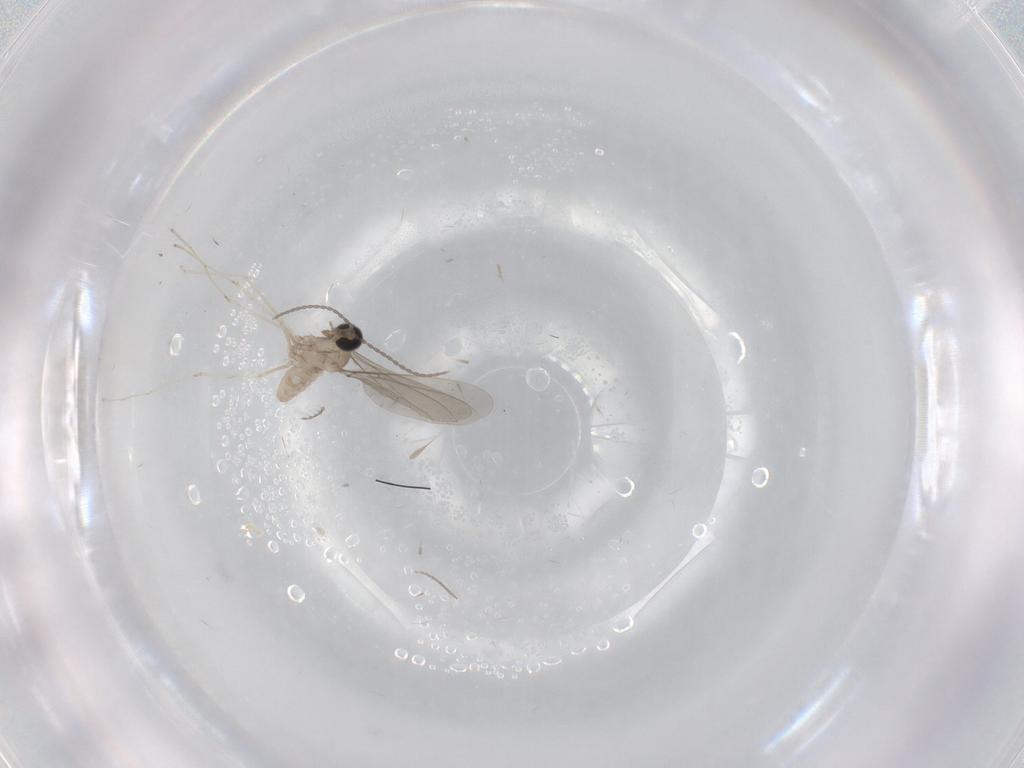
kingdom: Animalia
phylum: Arthropoda
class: Insecta
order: Diptera
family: Chironomidae
